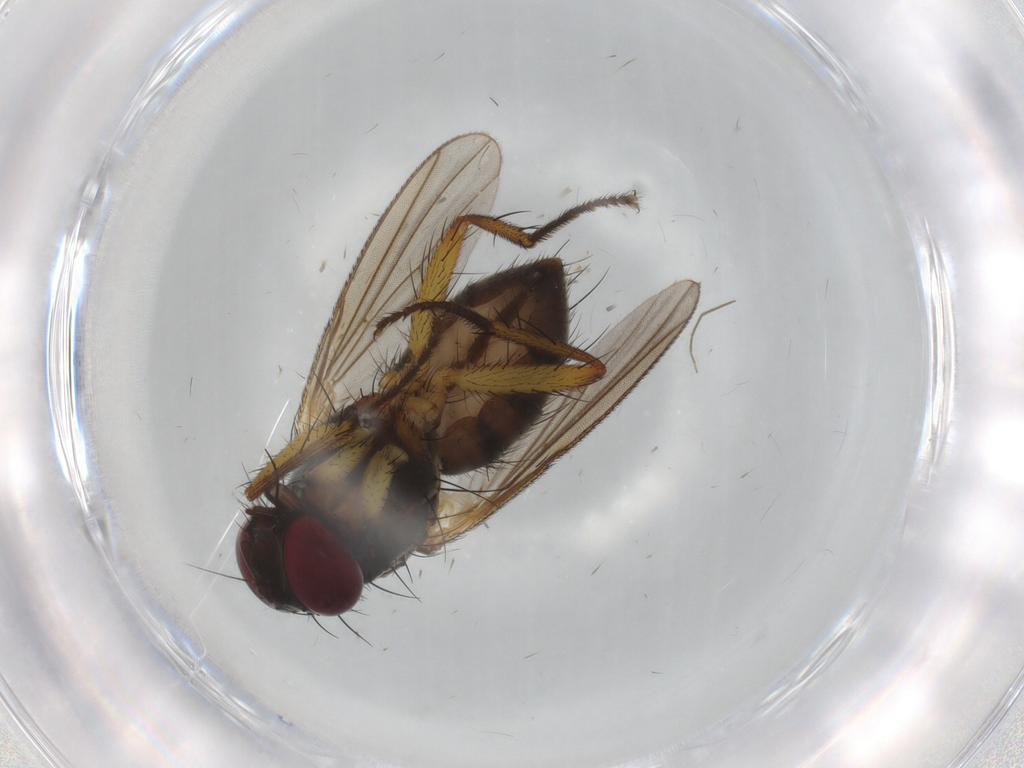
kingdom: Animalia
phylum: Arthropoda
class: Insecta
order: Diptera
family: Muscidae
